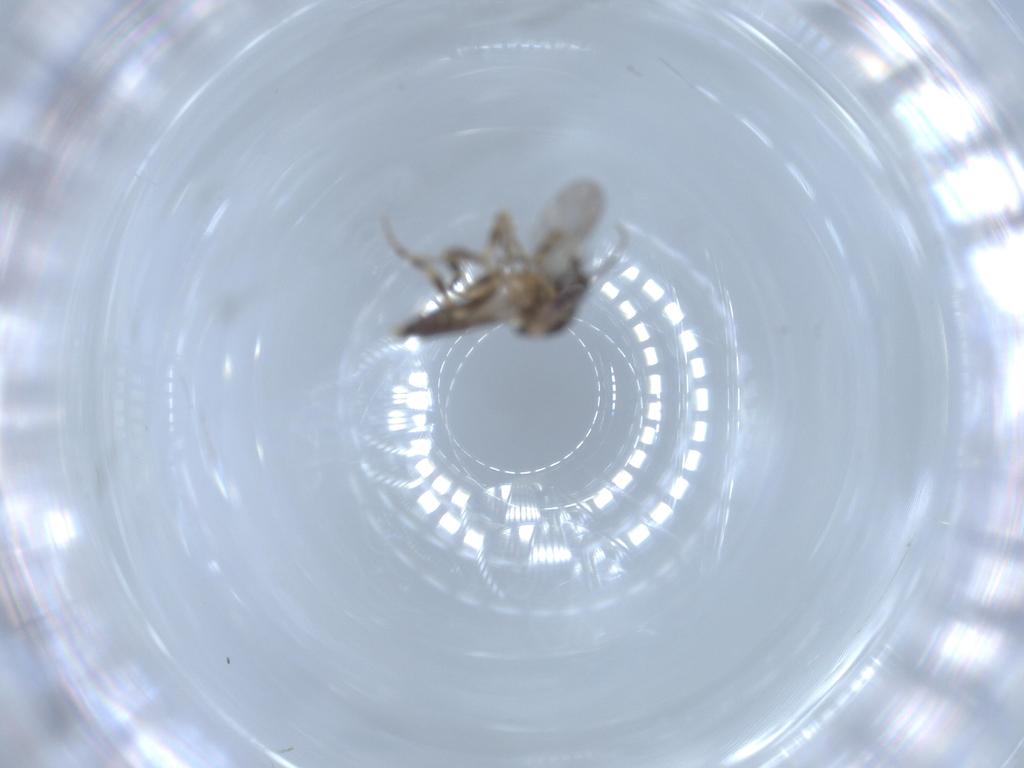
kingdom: Animalia
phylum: Arthropoda
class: Insecta
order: Diptera
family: Ceratopogonidae
